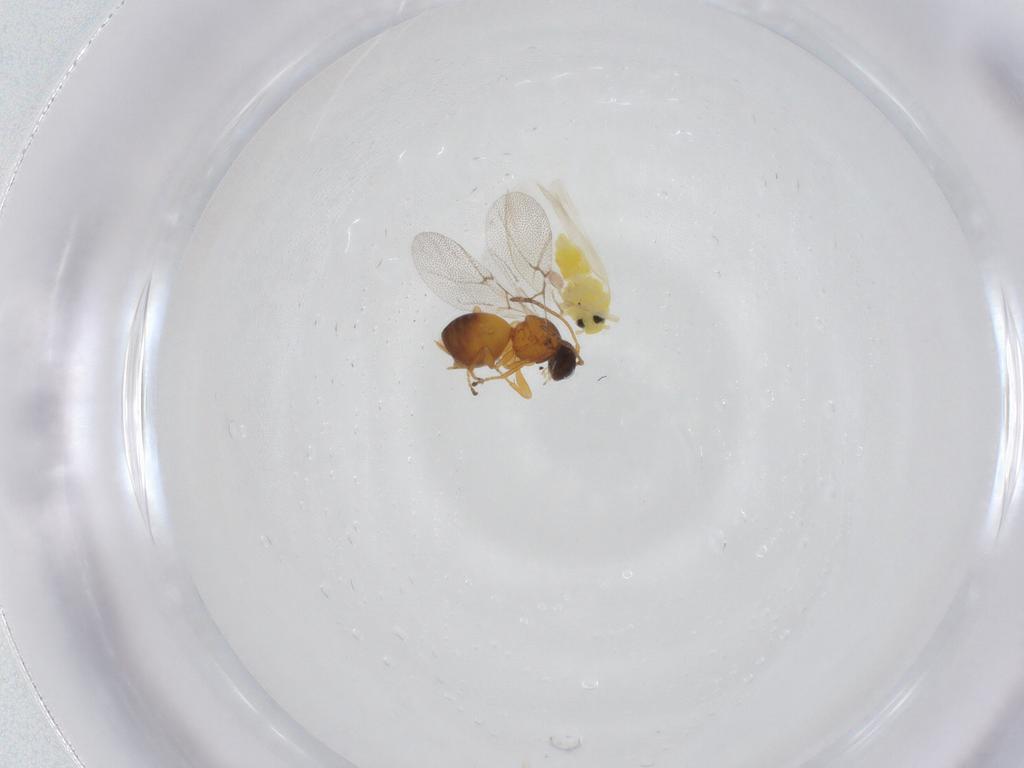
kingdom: Animalia
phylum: Arthropoda
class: Insecta
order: Hymenoptera
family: Cynipidae
